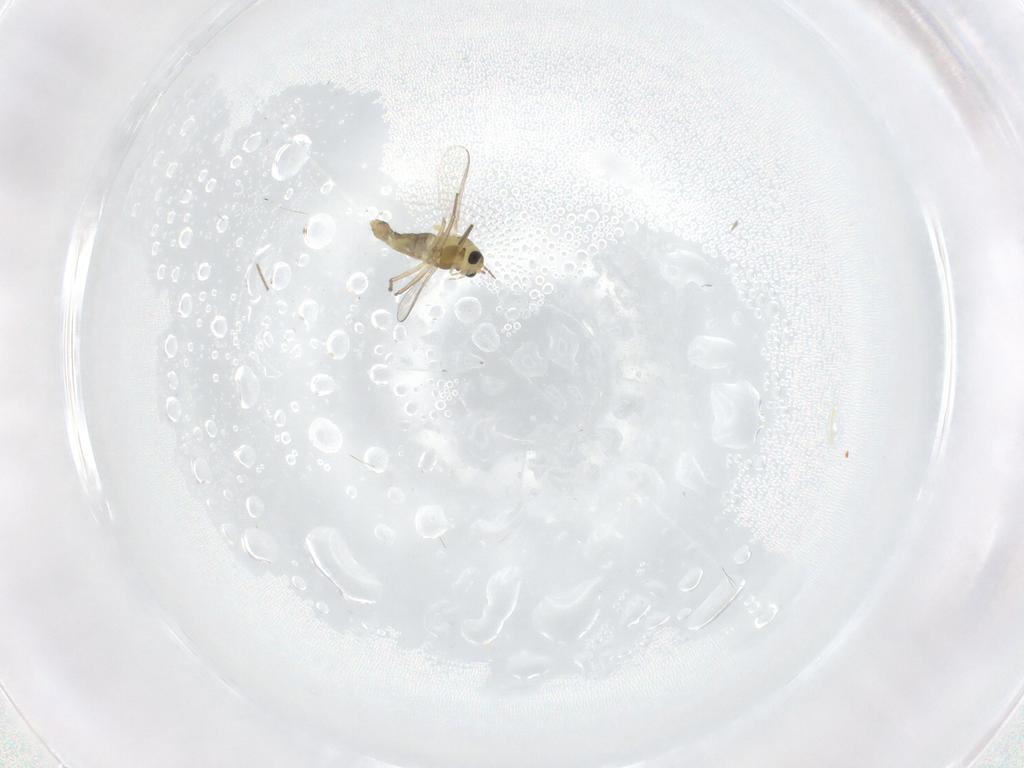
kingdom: Animalia
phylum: Arthropoda
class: Insecta
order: Diptera
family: Chironomidae
